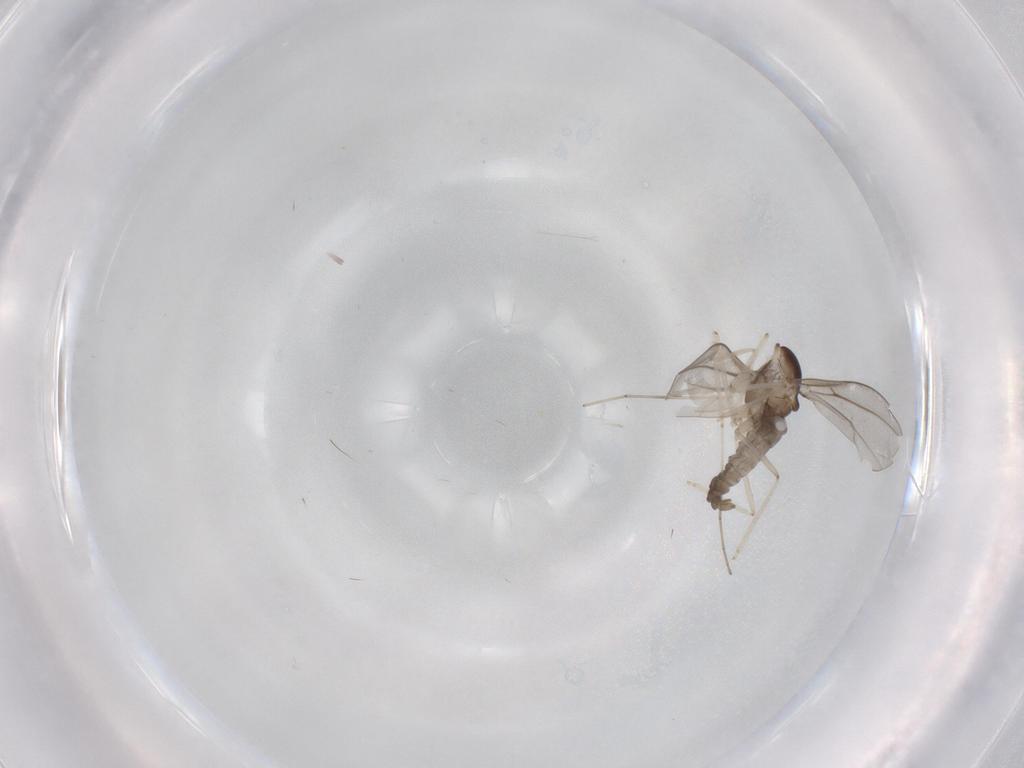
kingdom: Animalia
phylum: Arthropoda
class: Insecta
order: Diptera
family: Cecidomyiidae
